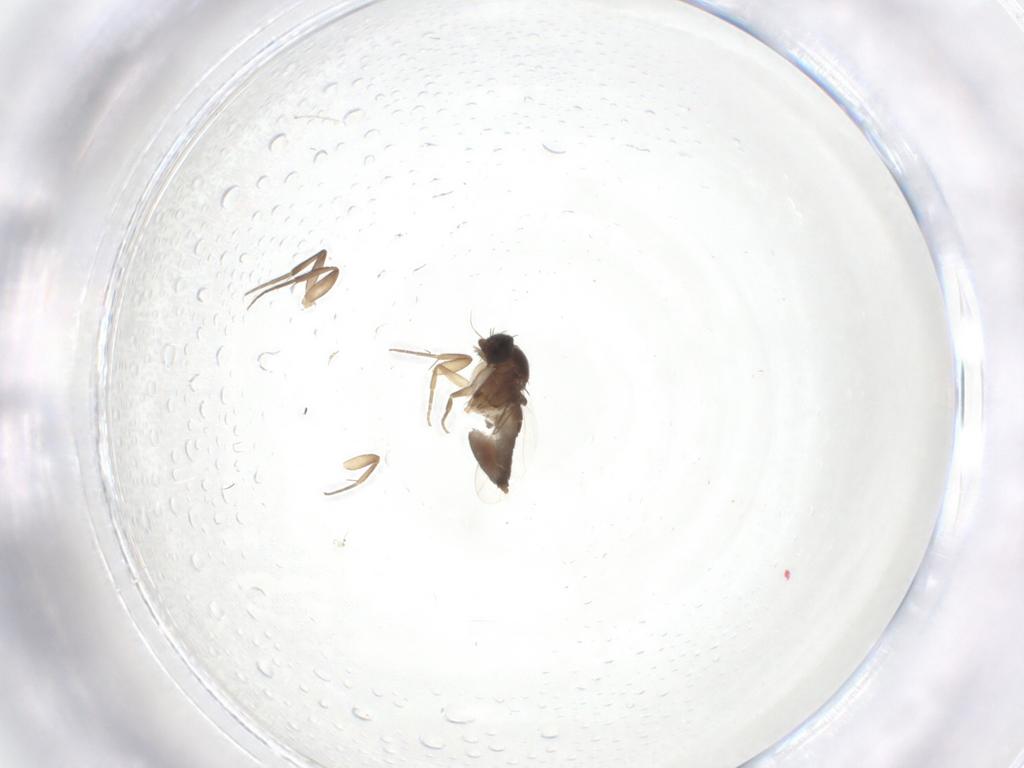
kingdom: Animalia
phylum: Arthropoda
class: Insecta
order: Diptera
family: Phoridae
